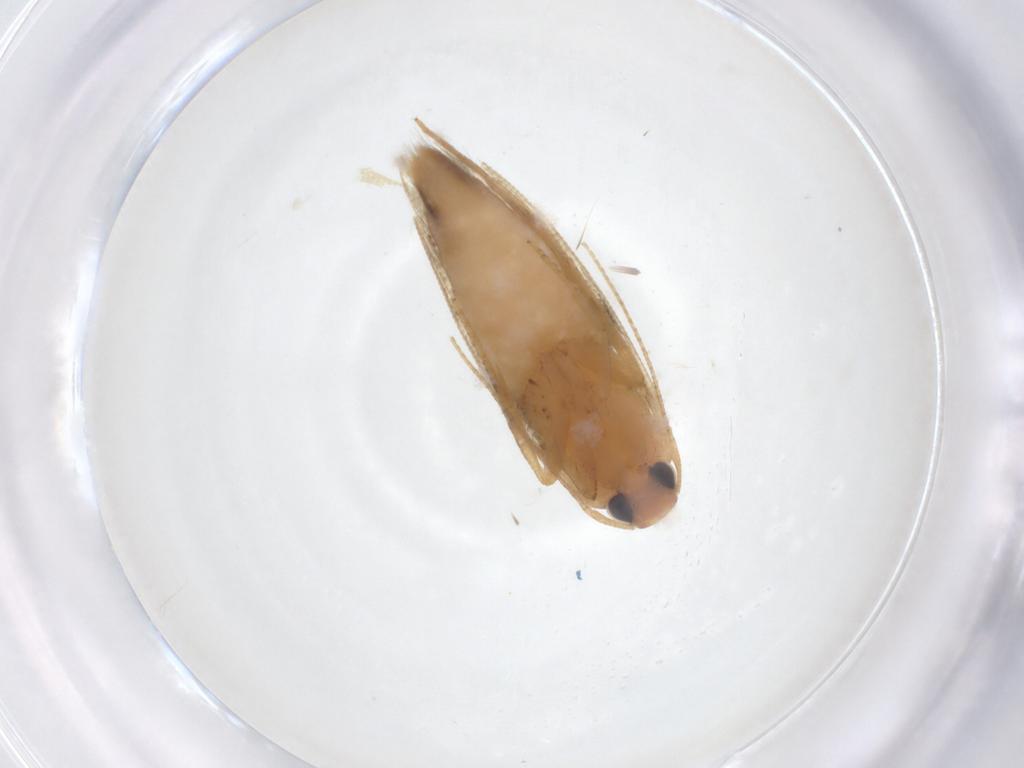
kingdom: Animalia
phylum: Arthropoda
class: Insecta
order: Lepidoptera
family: Cosmopterigidae
